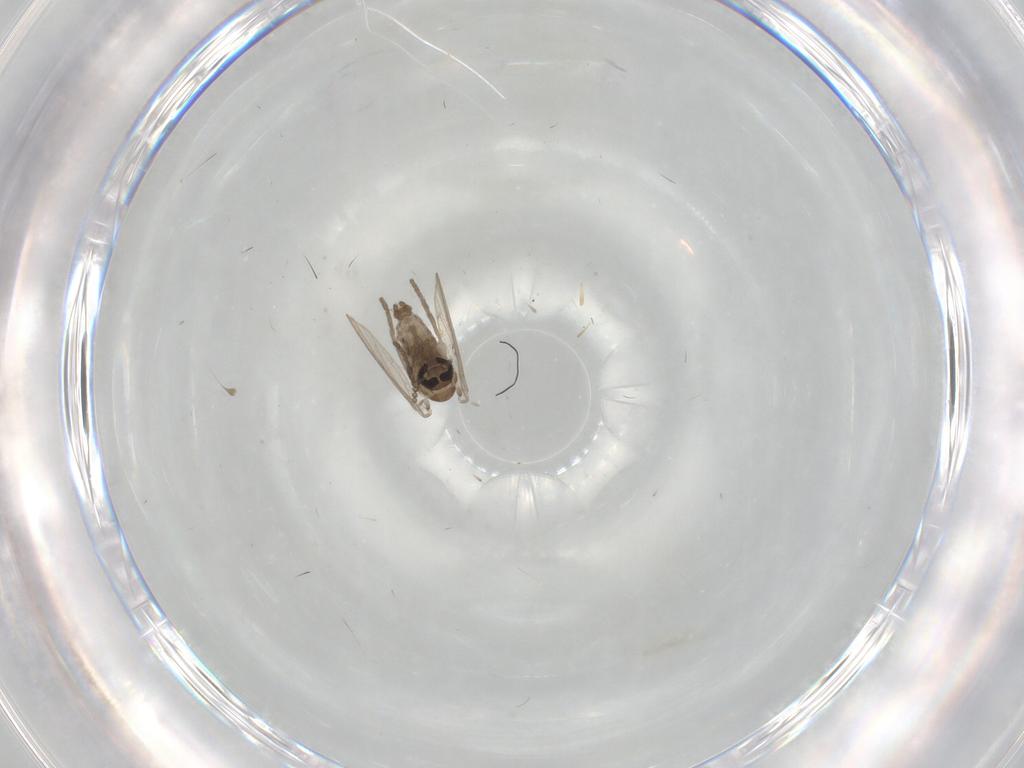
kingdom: Animalia
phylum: Arthropoda
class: Insecta
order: Diptera
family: Psychodidae
